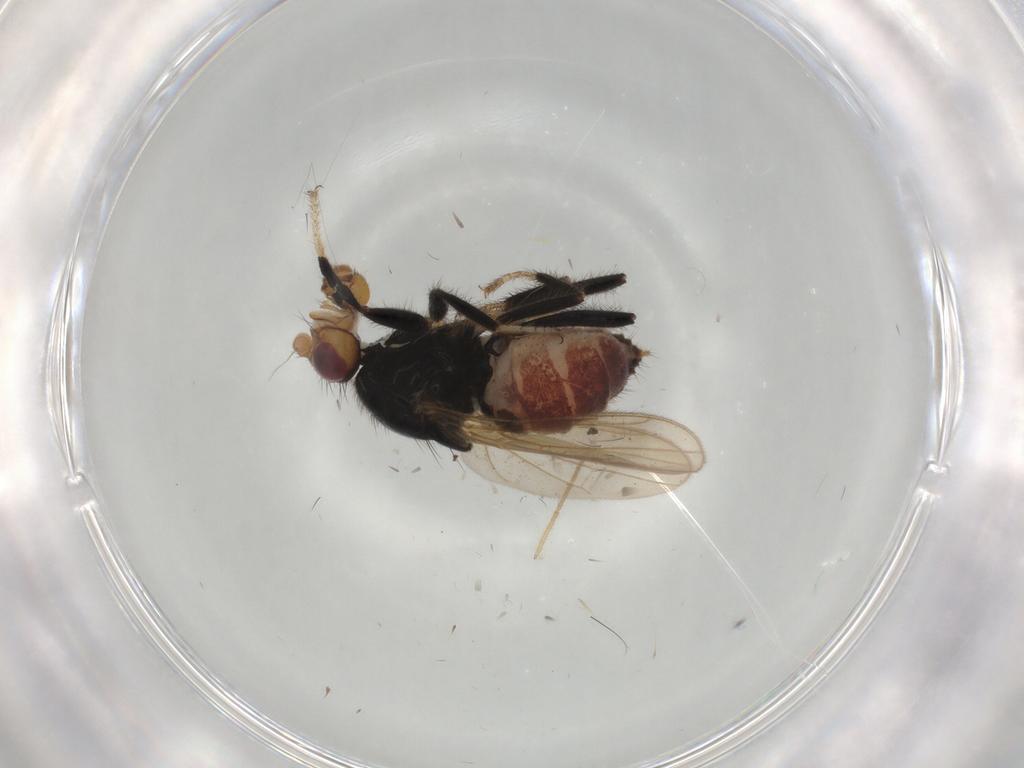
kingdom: Animalia
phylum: Arthropoda
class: Insecta
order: Diptera
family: Sphaeroceridae
